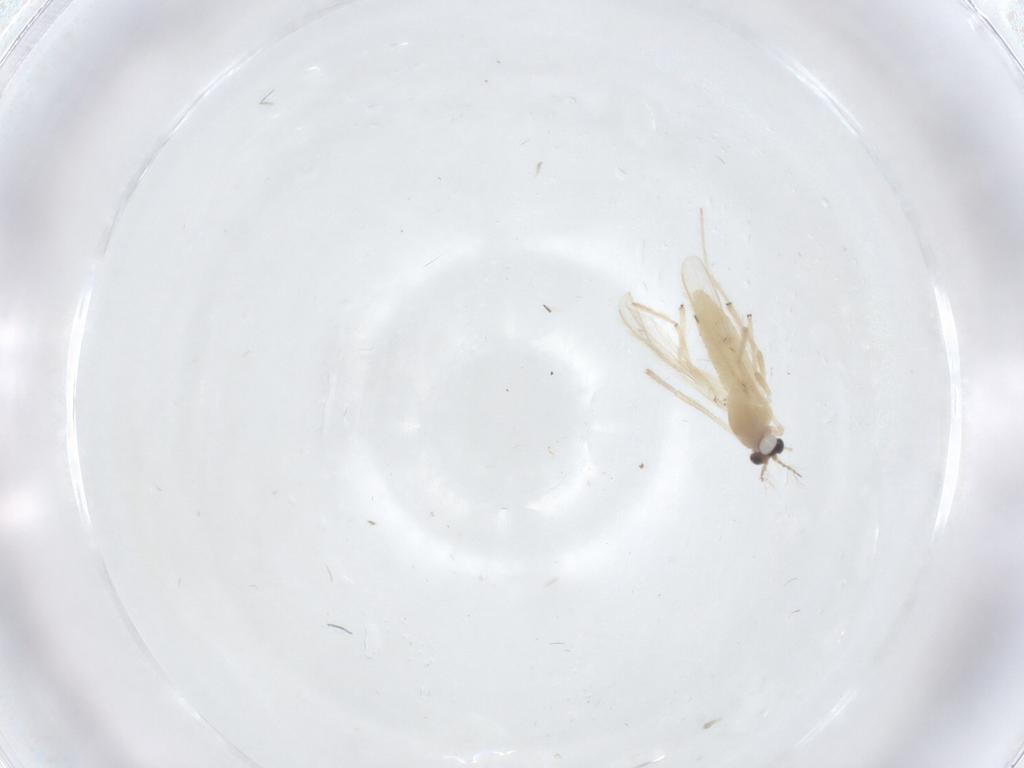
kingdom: Animalia
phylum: Arthropoda
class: Insecta
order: Diptera
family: Chironomidae
